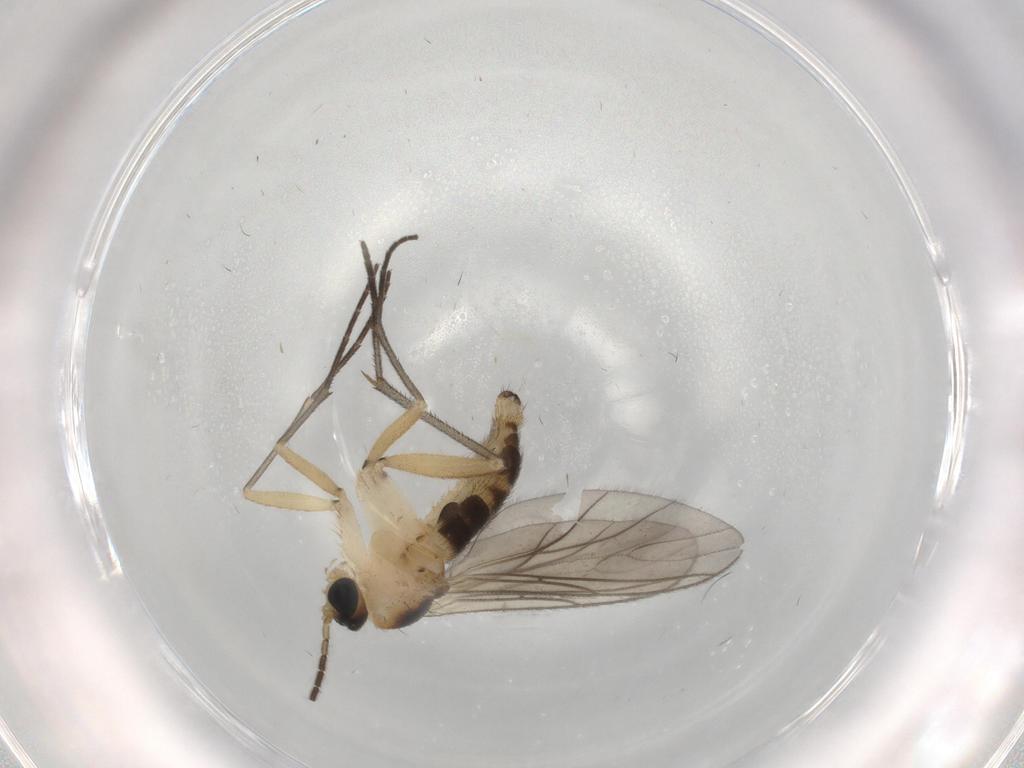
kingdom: Animalia
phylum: Arthropoda
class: Insecta
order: Diptera
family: Sciaridae
